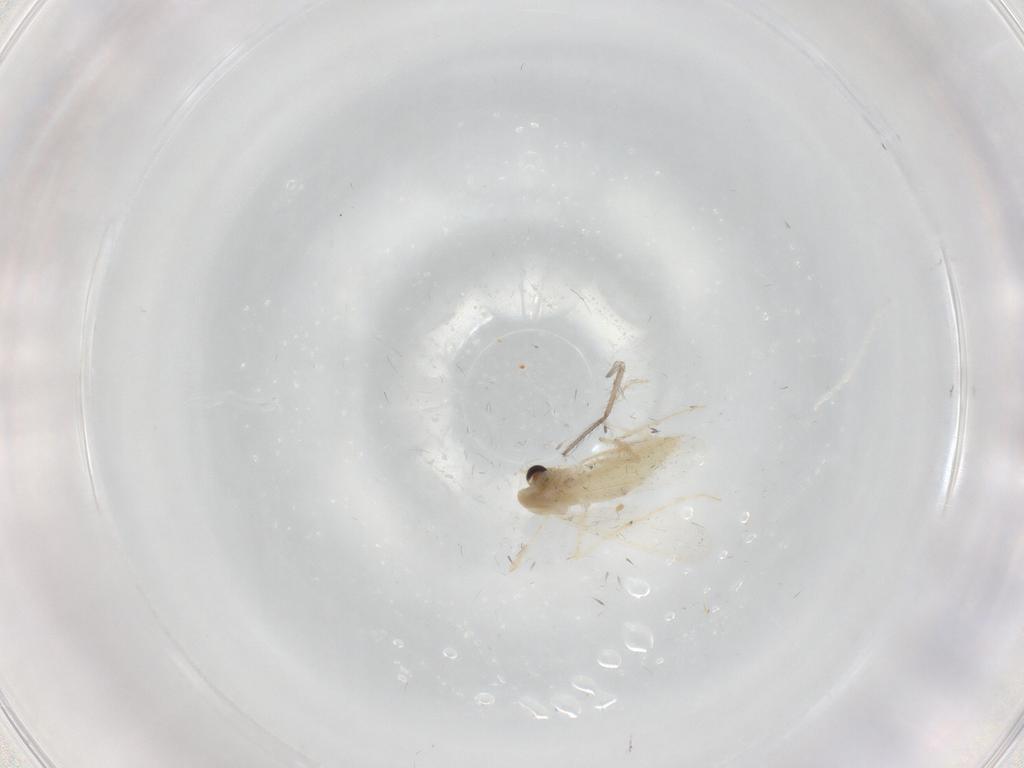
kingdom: Animalia
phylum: Arthropoda
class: Insecta
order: Diptera
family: Chironomidae
